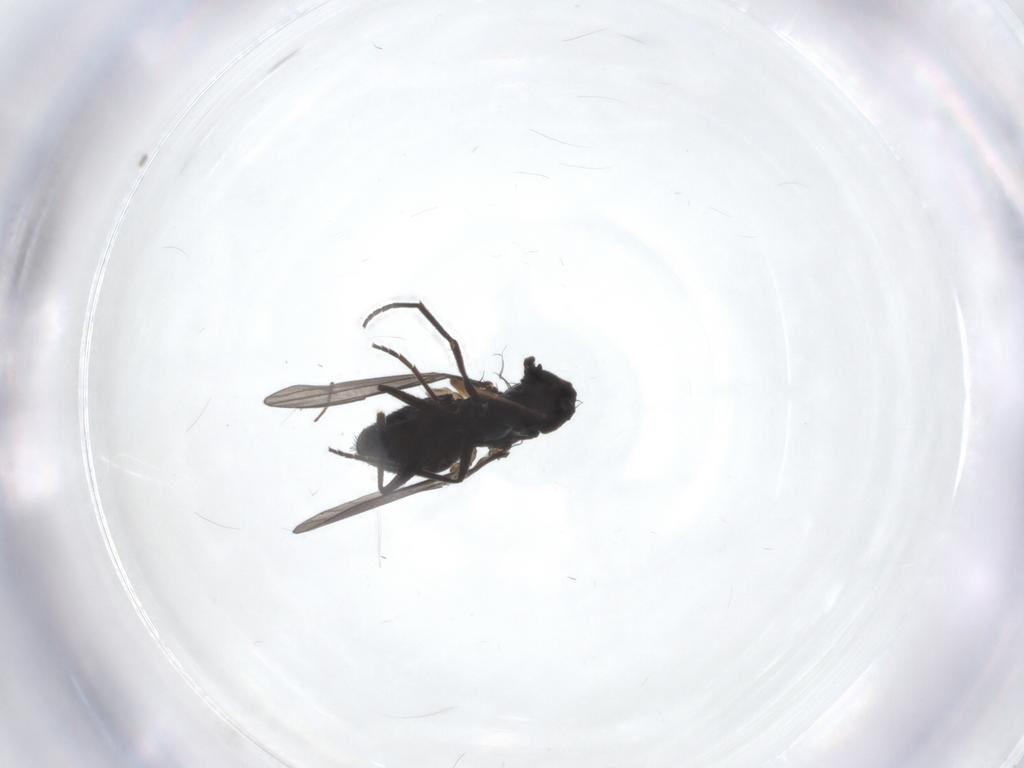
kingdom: Animalia
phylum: Arthropoda
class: Insecta
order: Diptera
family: Dolichopodidae
